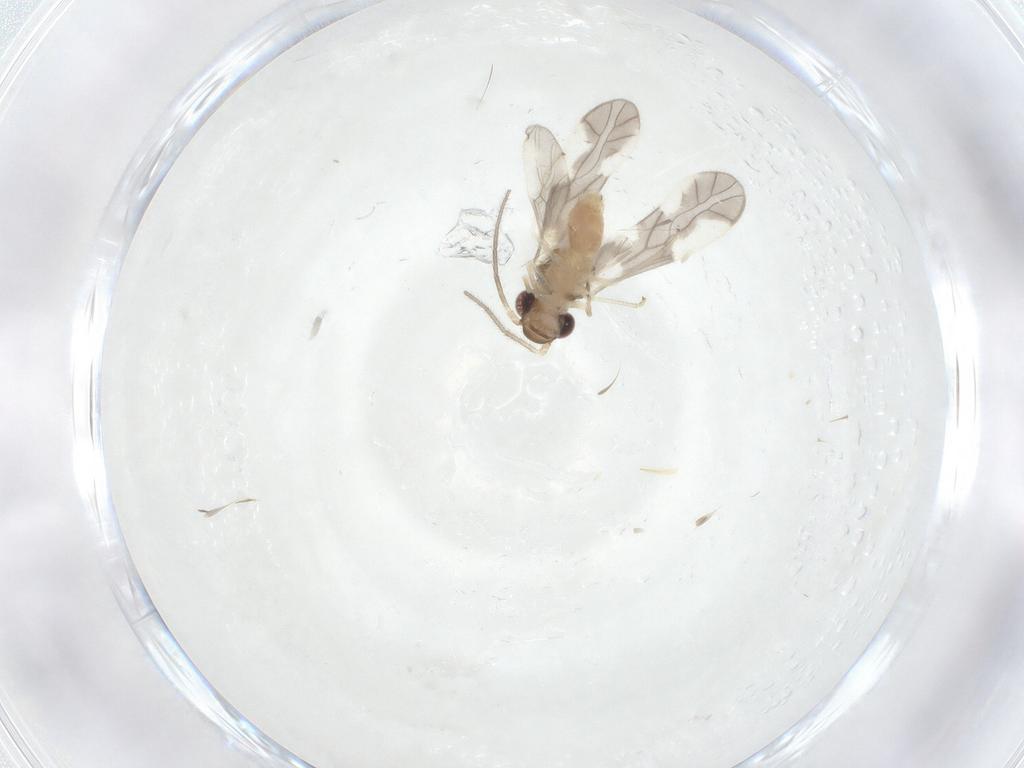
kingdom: Animalia
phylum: Arthropoda
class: Insecta
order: Psocodea
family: Caeciliusidae
